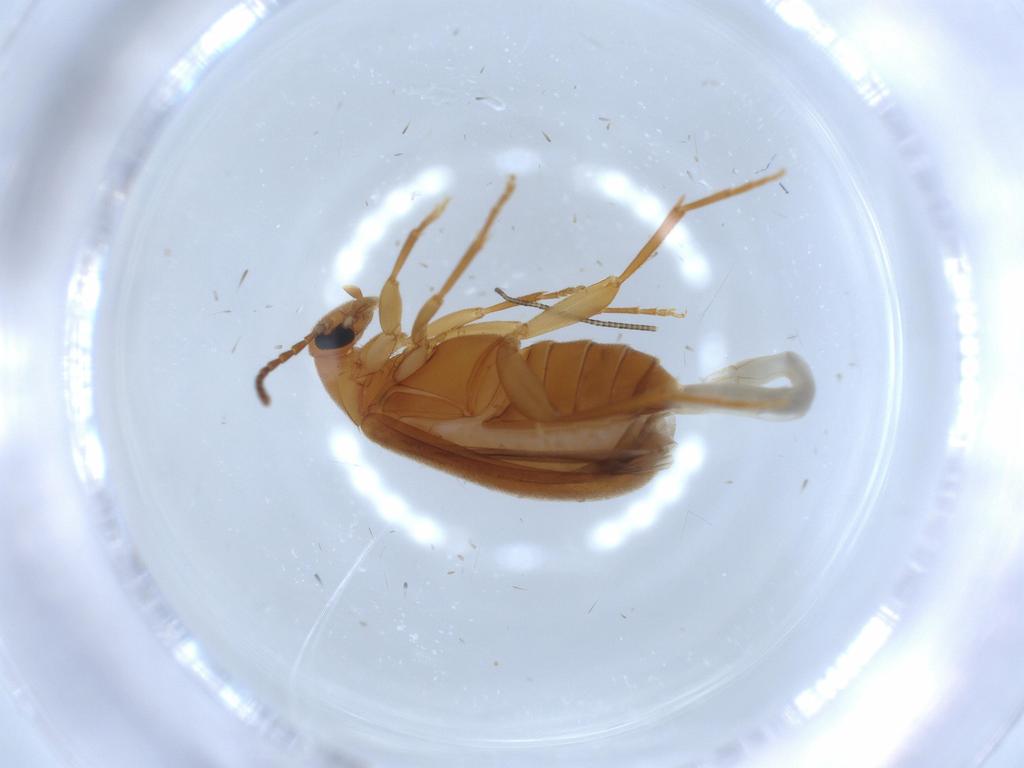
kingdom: Animalia
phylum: Arthropoda
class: Insecta
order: Coleoptera
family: Scraptiidae
